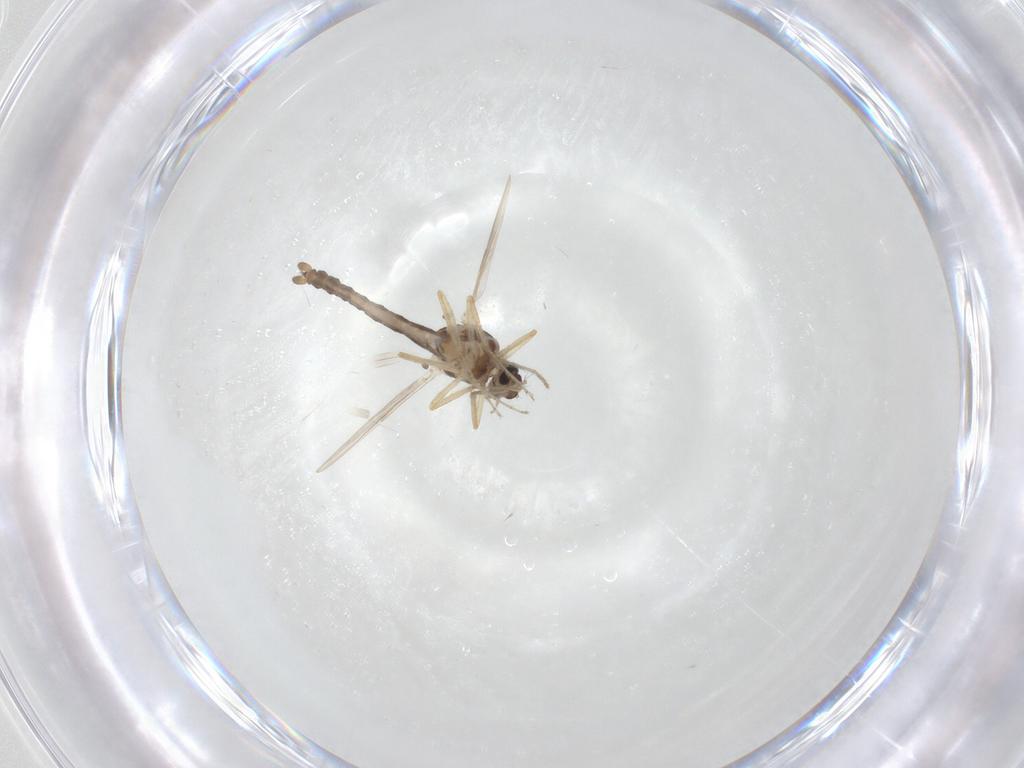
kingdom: Animalia
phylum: Arthropoda
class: Insecta
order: Diptera
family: Ceratopogonidae
